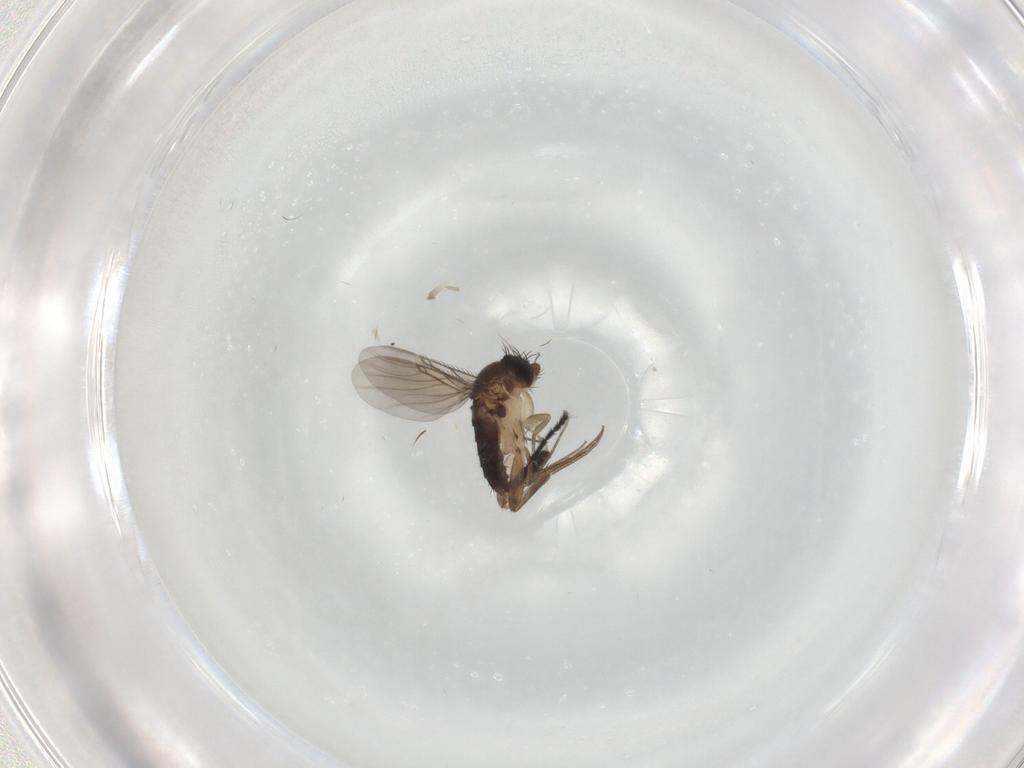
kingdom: Animalia
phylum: Arthropoda
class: Insecta
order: Diptera
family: Phoridae
